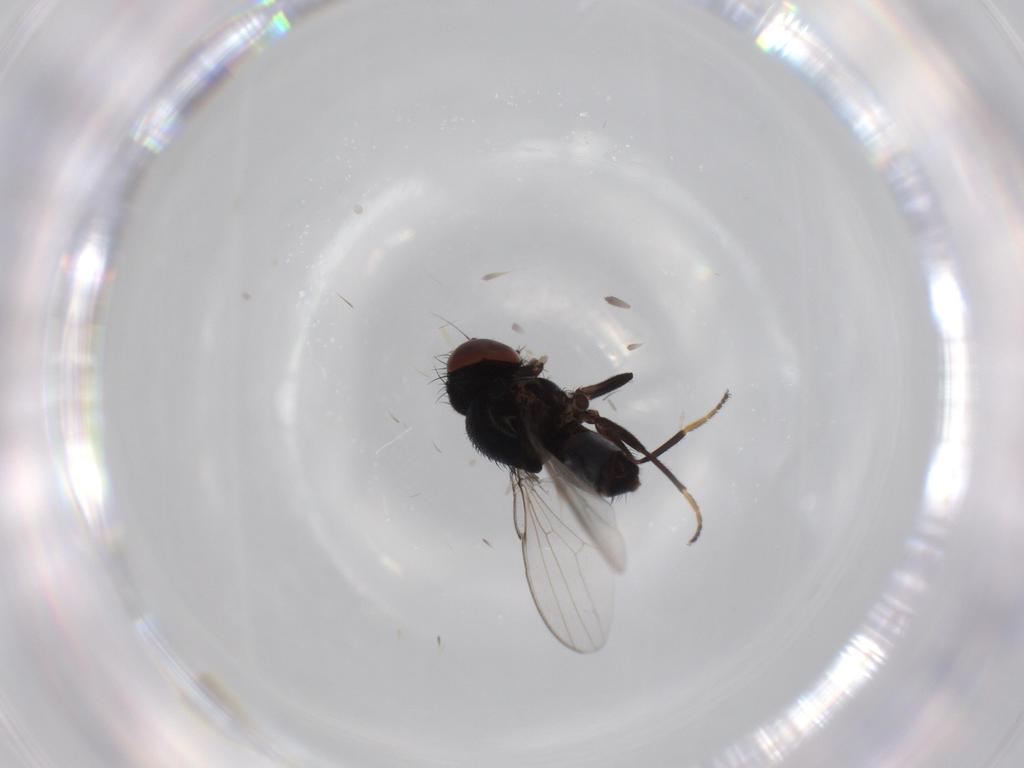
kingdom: Animalia
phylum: Arthropoda
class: Insecta
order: Diptera
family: Milichiidae
